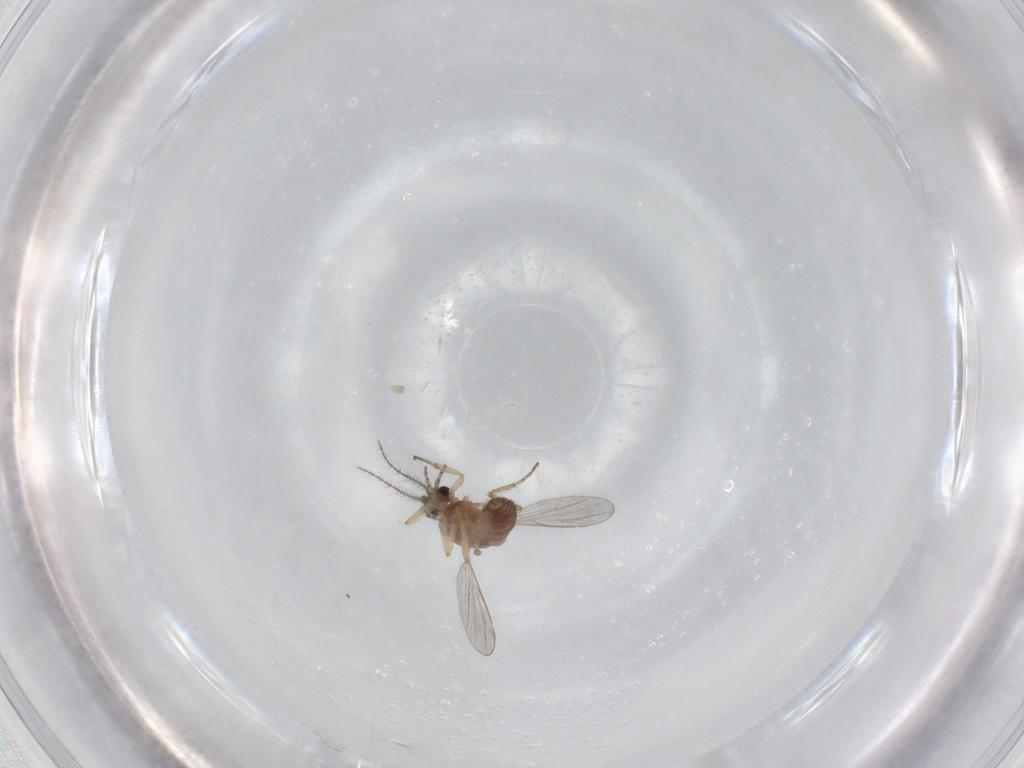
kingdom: Animalia
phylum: Arthropoda
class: Insecta
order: Diptera
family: Ceratopogonidae
